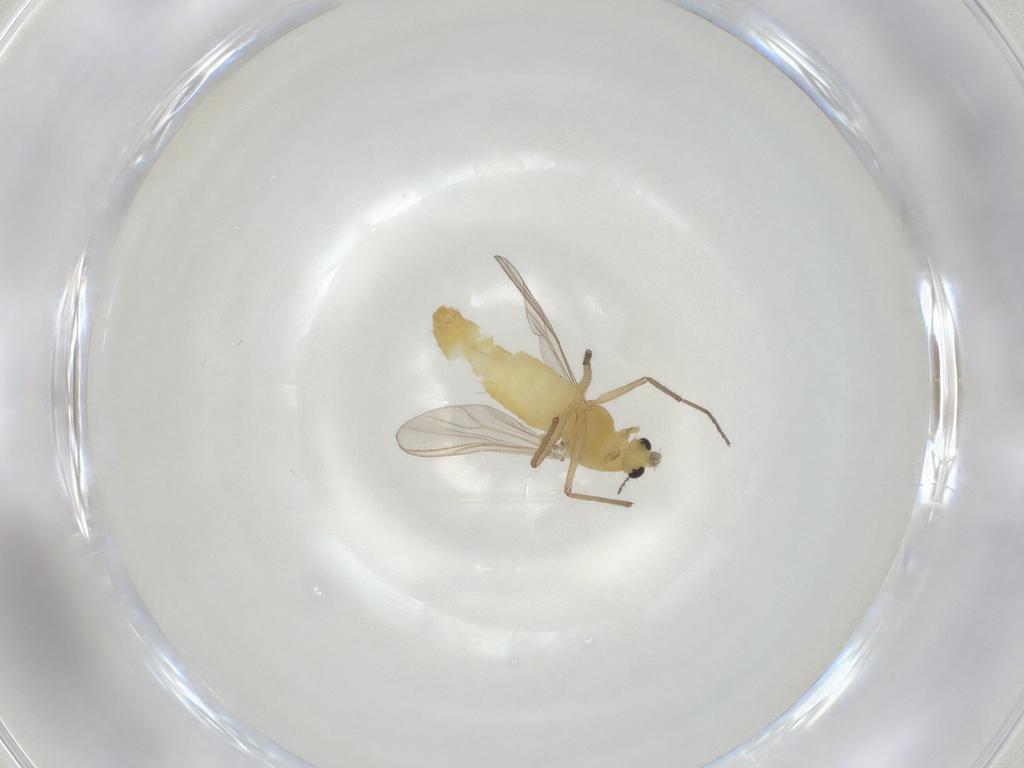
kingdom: Animalia
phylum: Arthropoda
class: Insecta
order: Diptera
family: Chironomidae
